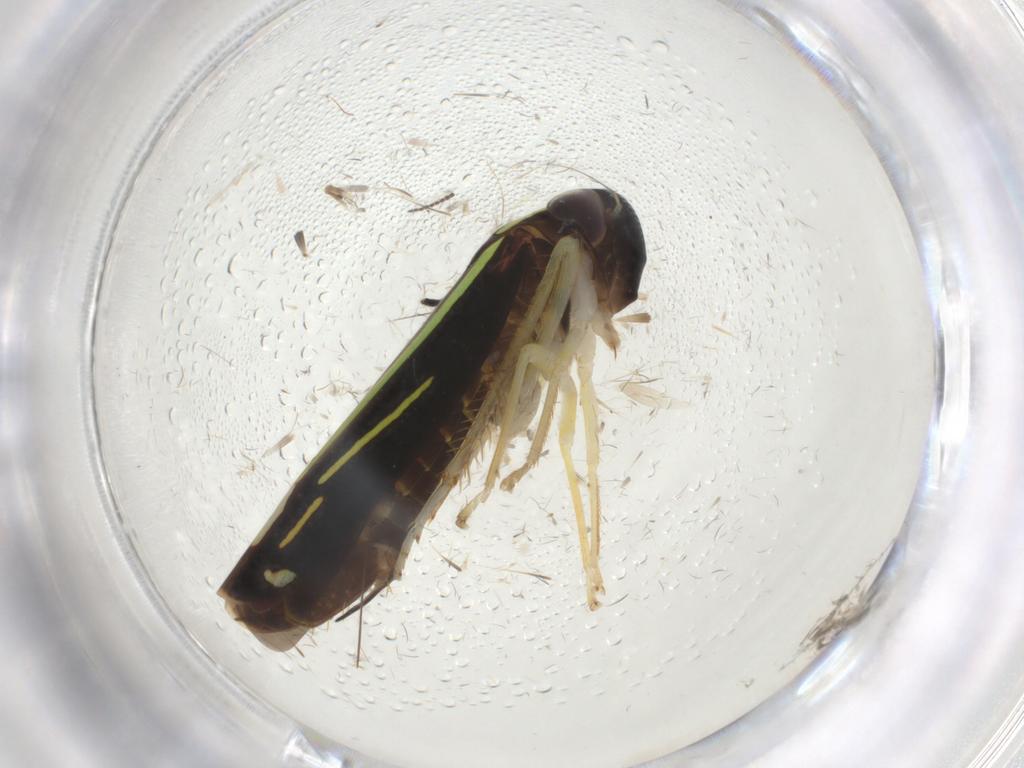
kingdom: Animalia
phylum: Arthropoda
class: Insecta
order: Hemiptera
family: Cicadellidae
